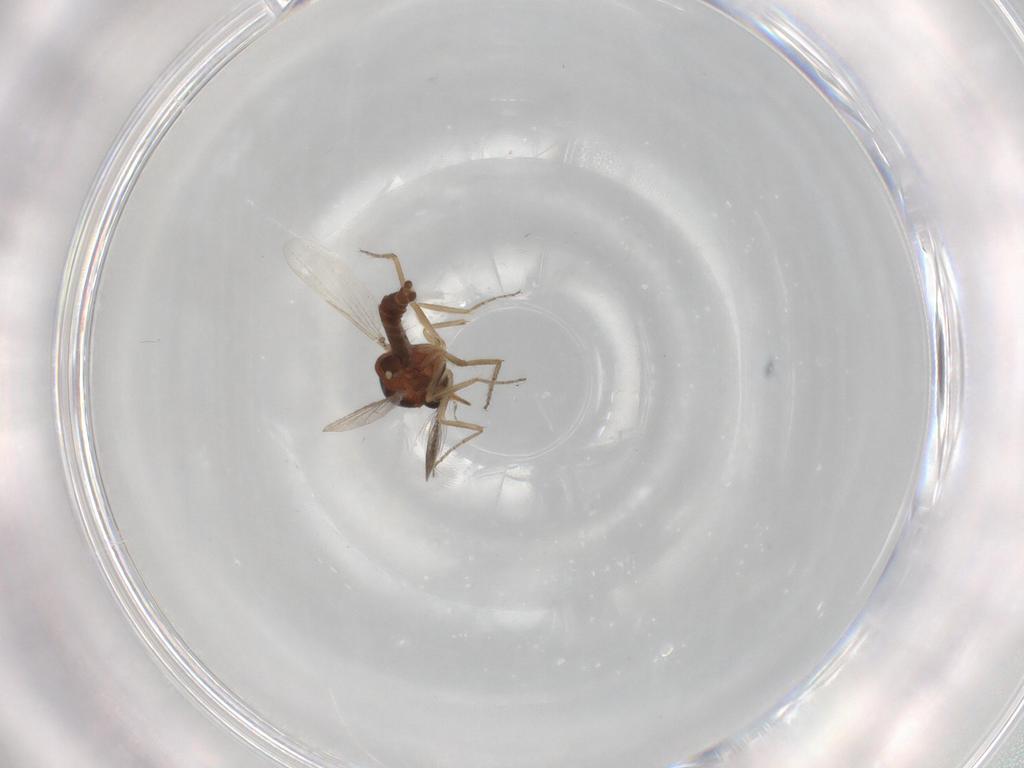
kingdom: Animalia
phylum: Arthropoda
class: Insecta
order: Diptera
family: Ceratopogonidae
